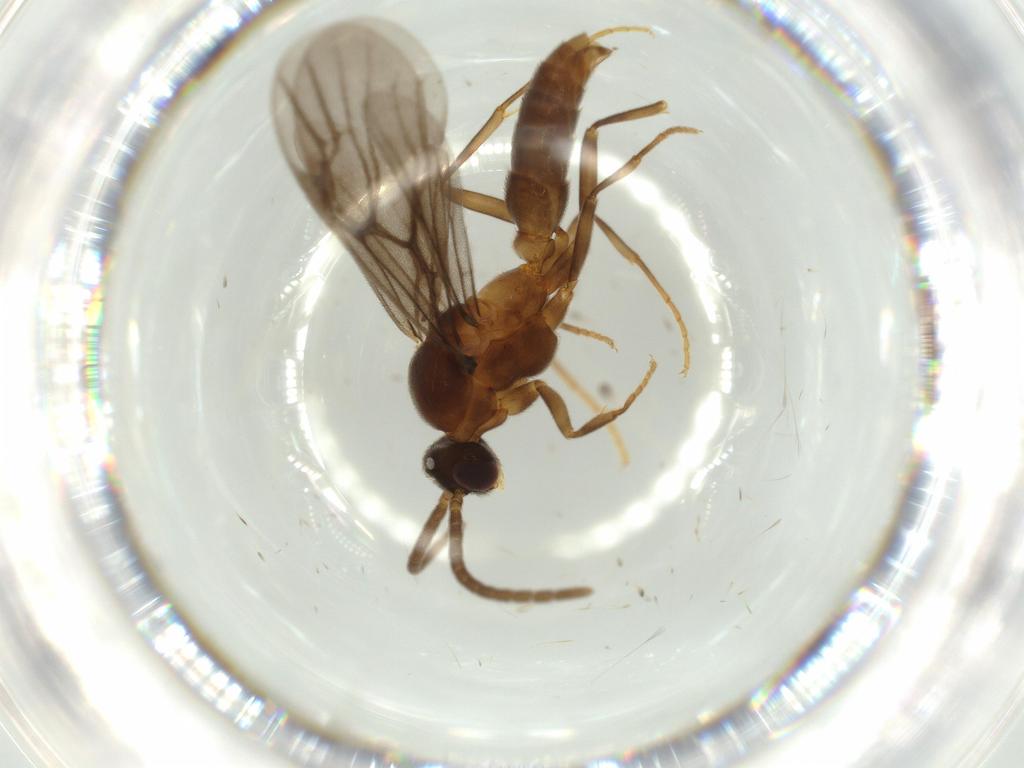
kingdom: Animalia
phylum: Arthropoda
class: Insecta
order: Hymenoptera
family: Formicidae
